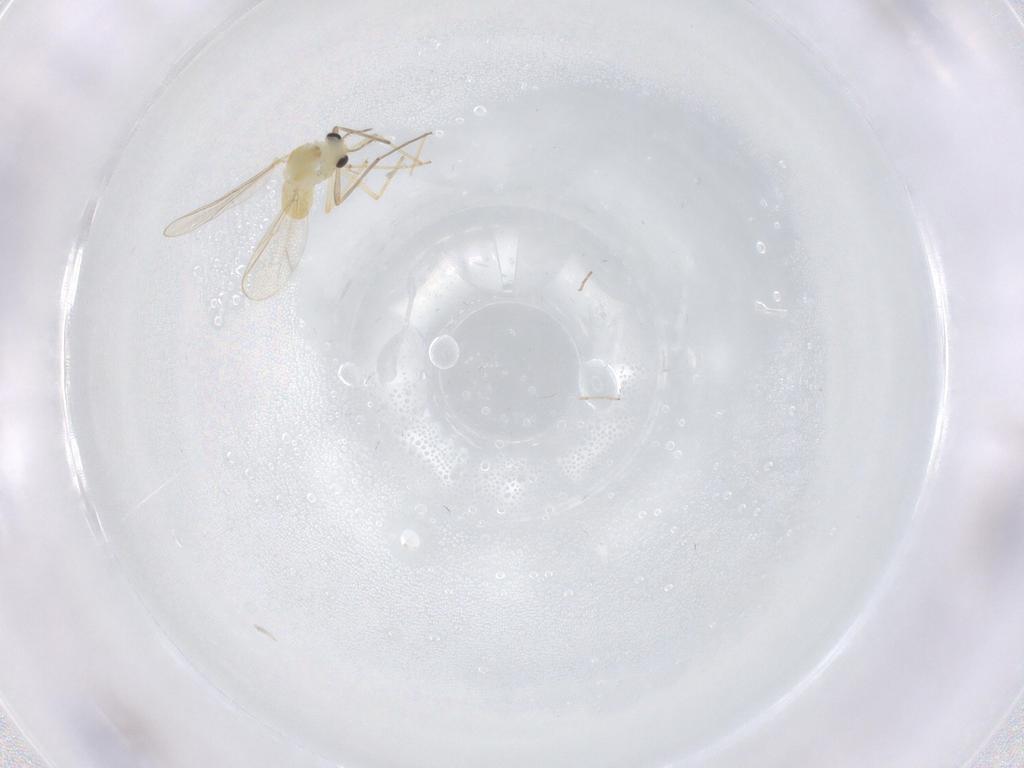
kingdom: Animalia
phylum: Arthropoda
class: Insecta
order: Diptera
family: Chironomidae
